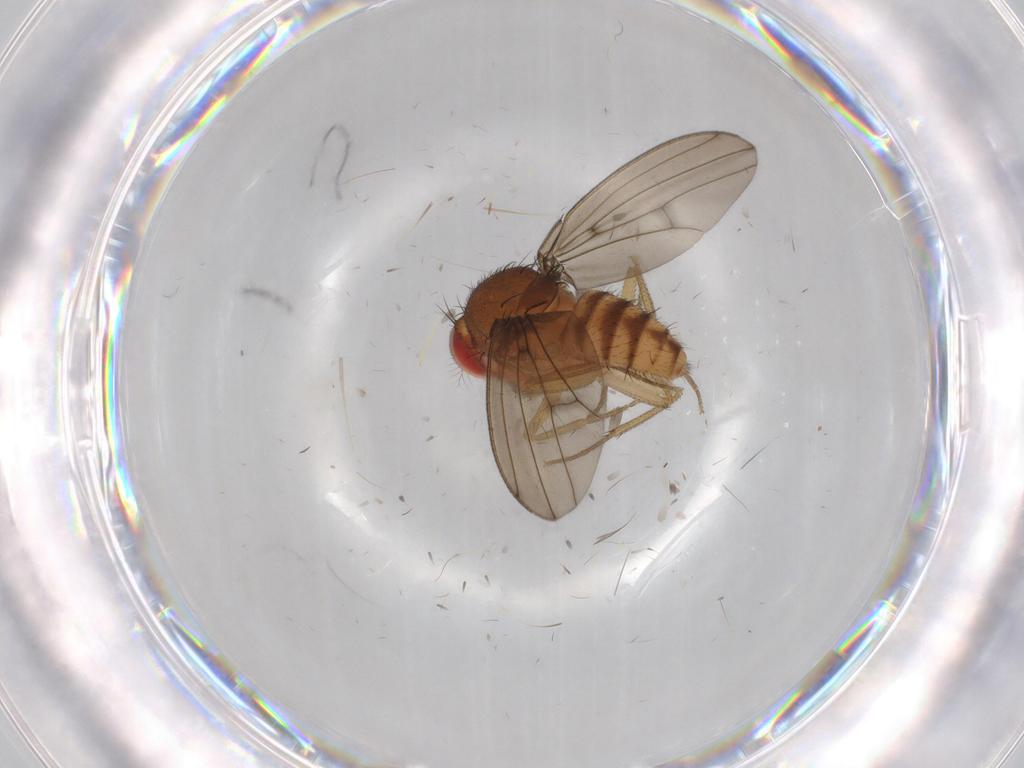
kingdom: Animalia
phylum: Arthropoda
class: Insecta
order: Diptera
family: Drosophilidae
